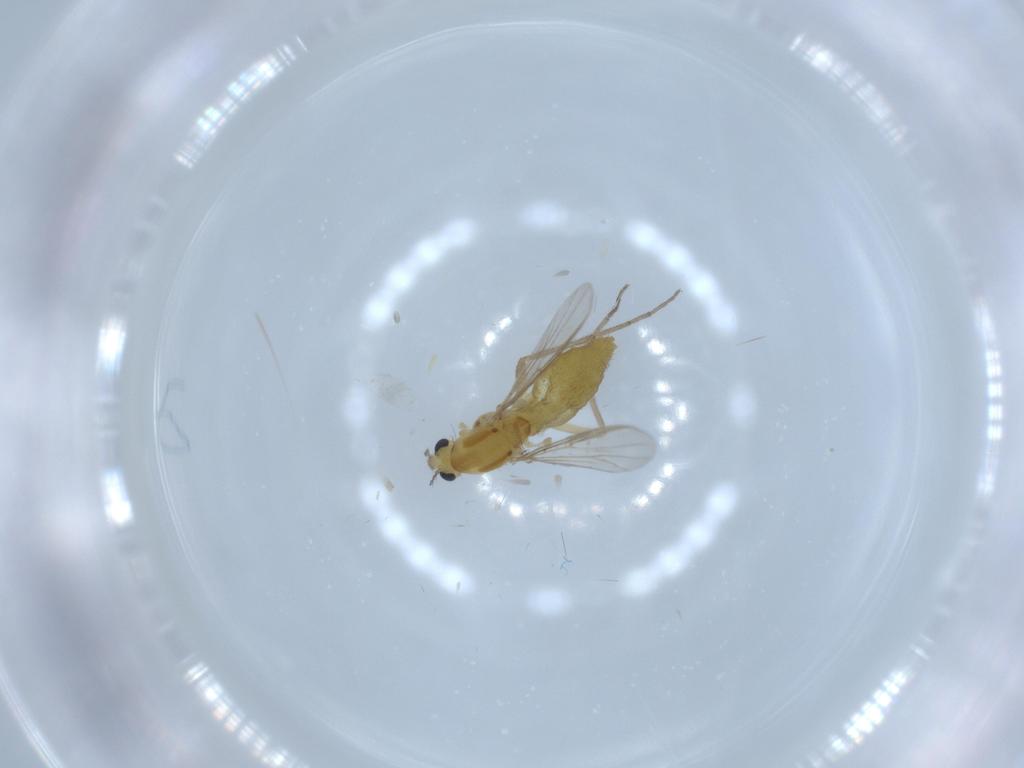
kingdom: Animalia
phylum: Arthropoda
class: Insecta
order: Diptera
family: Chironomidae
